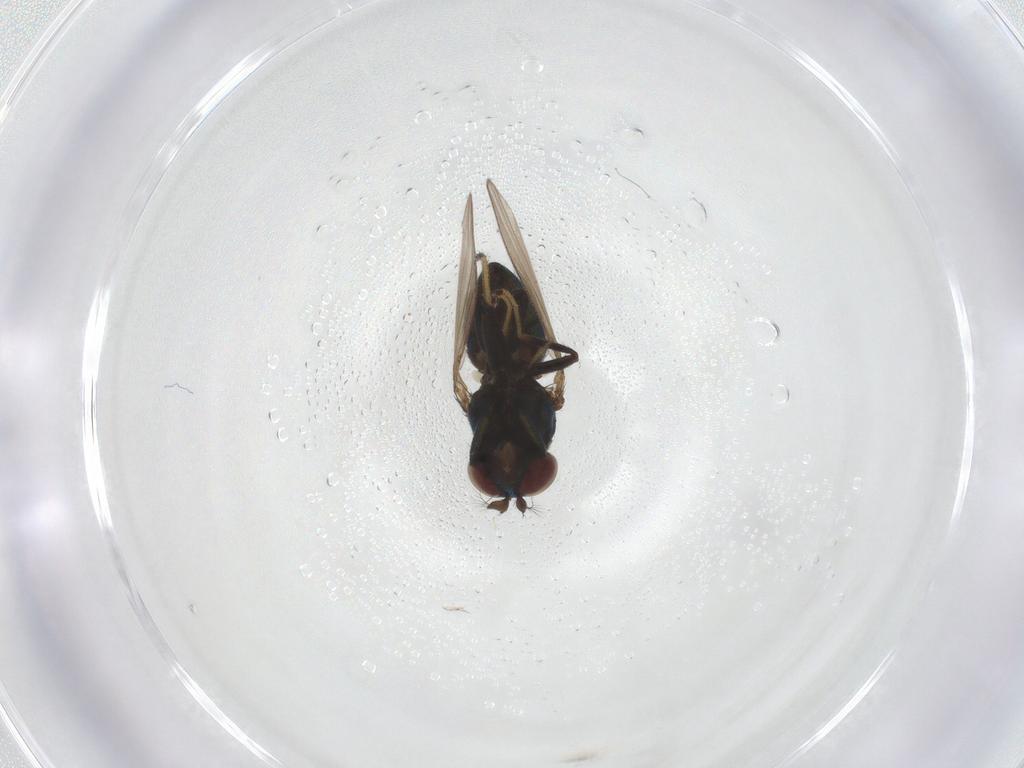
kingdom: Animalia
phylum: Arthropoda
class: Insecta
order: Diptera
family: Ephydridae
